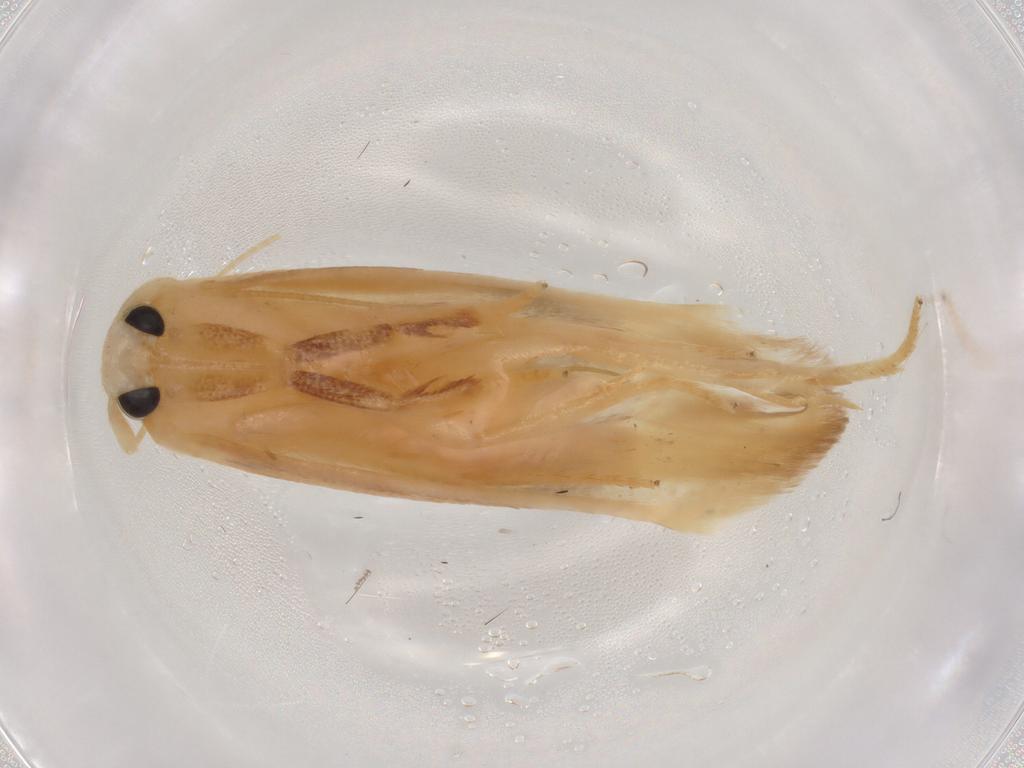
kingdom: Animalia
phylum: Arthropoda
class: Insecta
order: Lepidoptera
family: Geometridae
